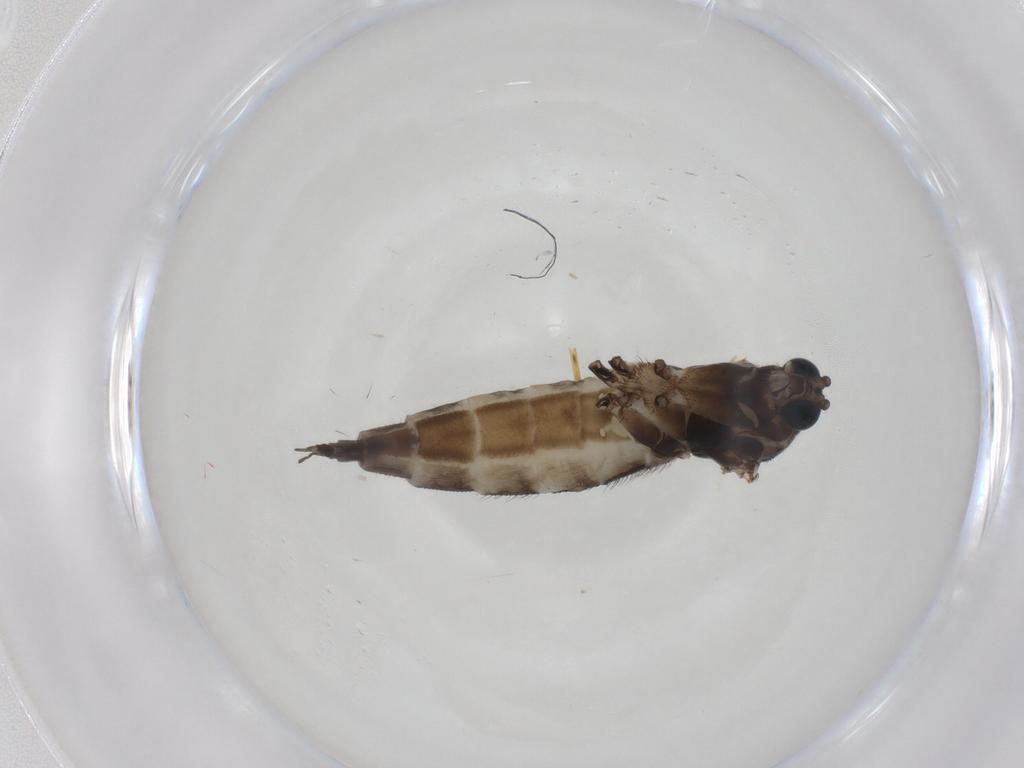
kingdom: Animalia
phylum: Arthropoda
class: Insecta
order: Diptera
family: Sciaridae
